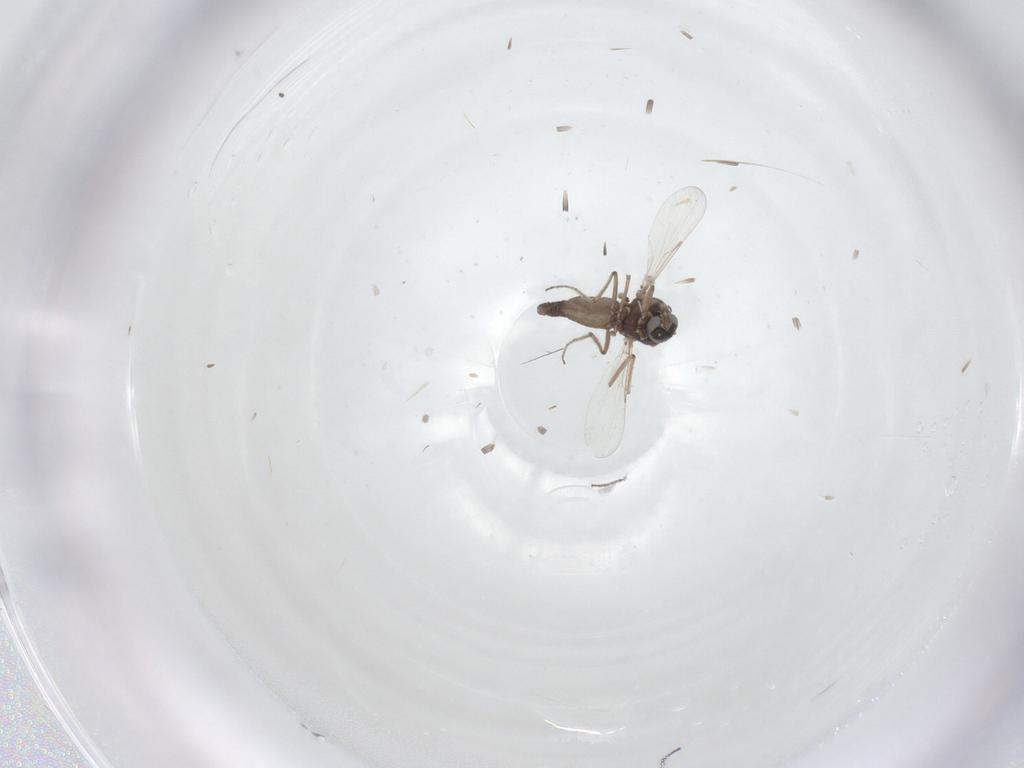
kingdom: Animalia
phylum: Arthropoda
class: Insecta
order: Diptera
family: Ceratopogonidae
